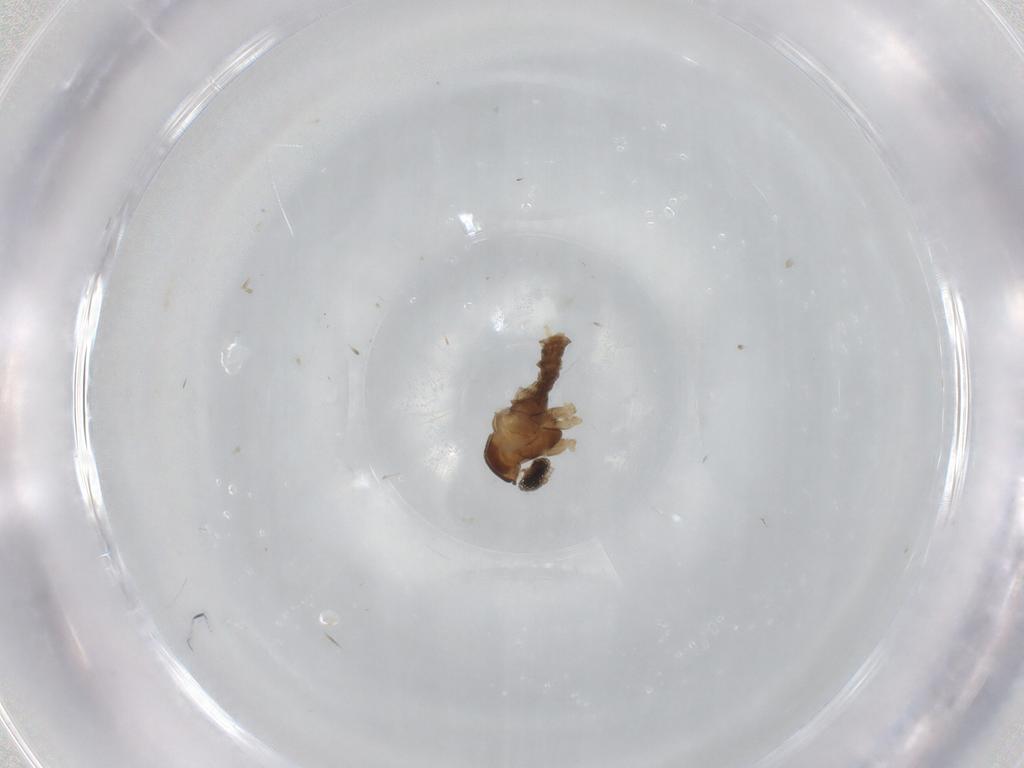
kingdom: Animalia
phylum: Arthropoda
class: Insecta
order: Diptera
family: Cecidomyiidae
